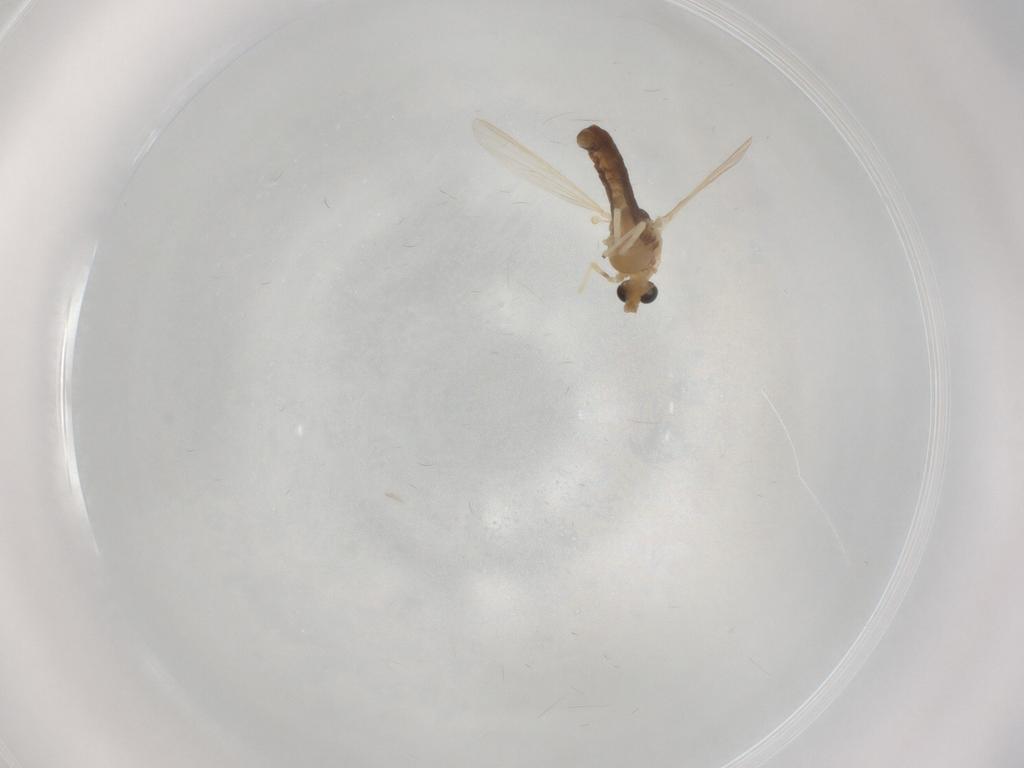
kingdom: Animalia
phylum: Arthropoda
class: Insecta
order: Diptera
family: Chironomidae
